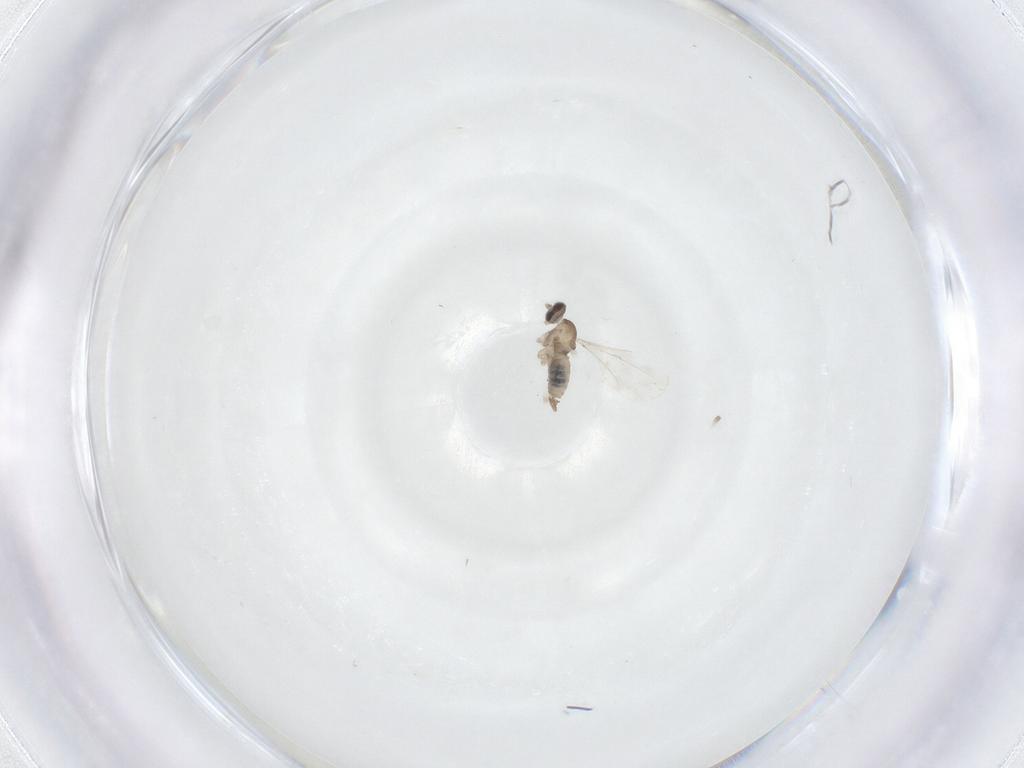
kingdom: Animalia
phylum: Arthropoda
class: Insecta
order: Diptera
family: Cecidomyiidae
